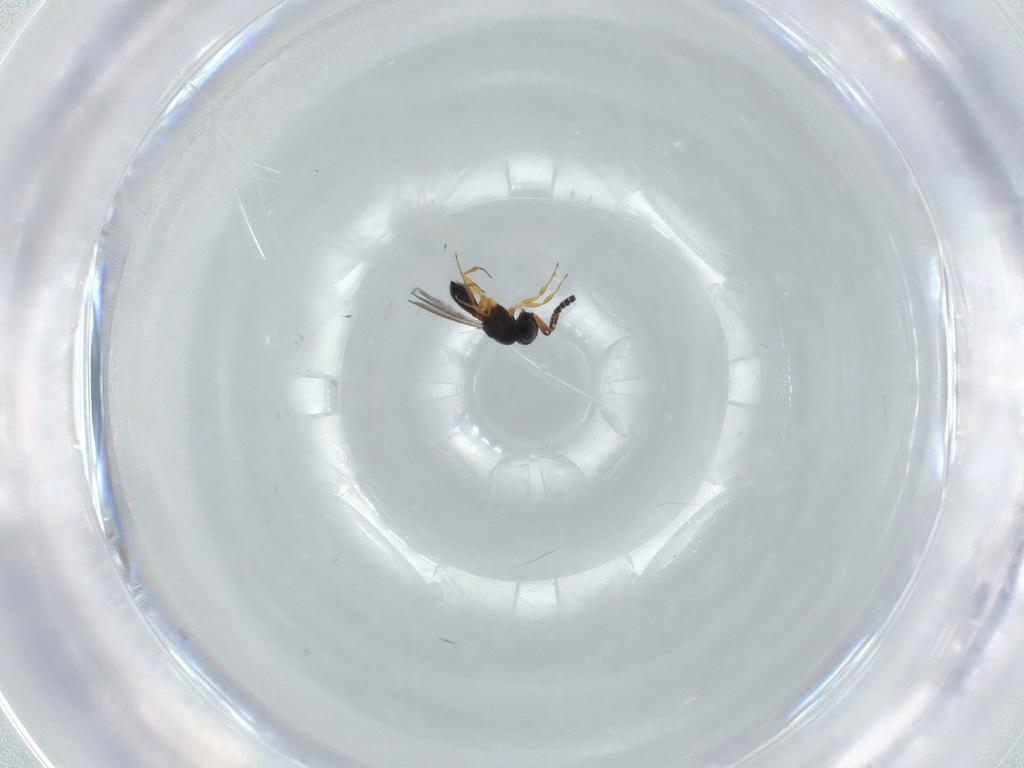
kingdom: Animalia
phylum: Arthropoda
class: Insecta
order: Hymenoptera
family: Scelionidae
